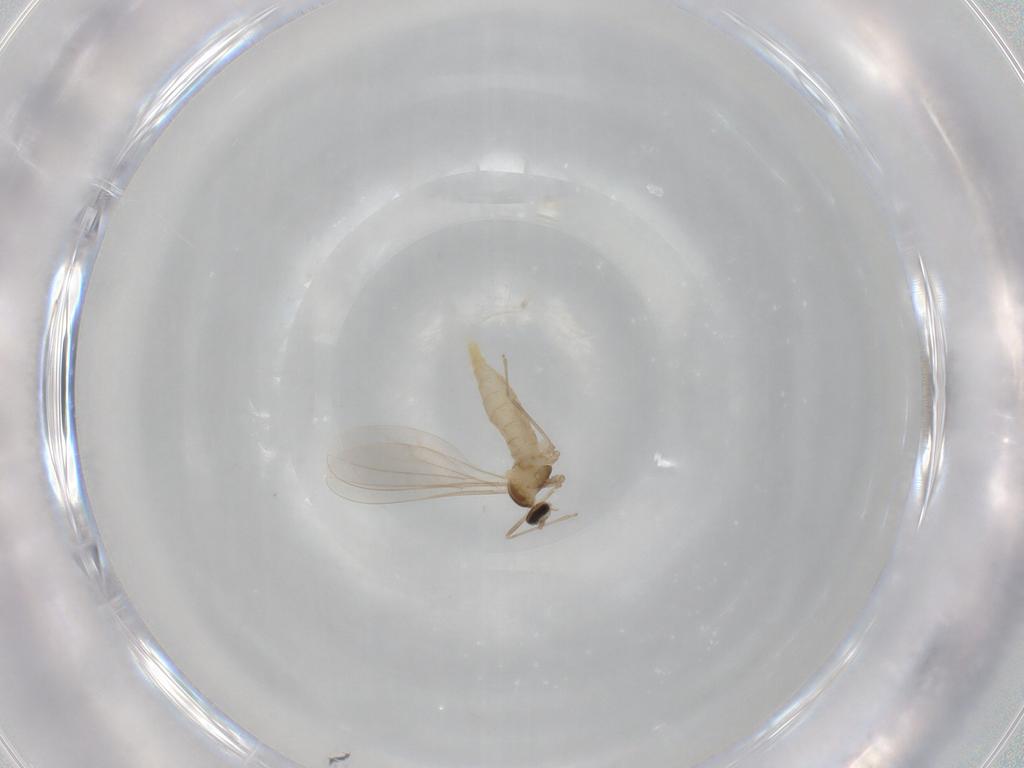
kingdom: Animalia
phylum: Arthropoda
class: Insecta
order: Diptera
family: Cecidomyiidae
